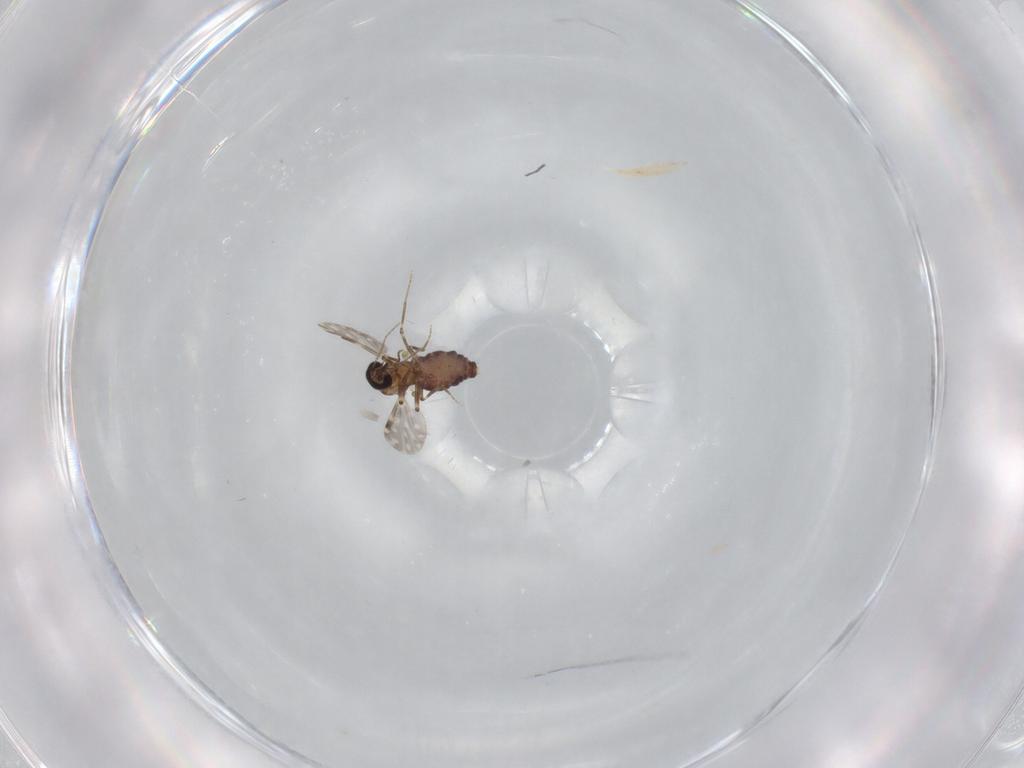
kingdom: Animalia
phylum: Arthropoda
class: Insecta
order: Diptera
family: Ceratopogonidae
